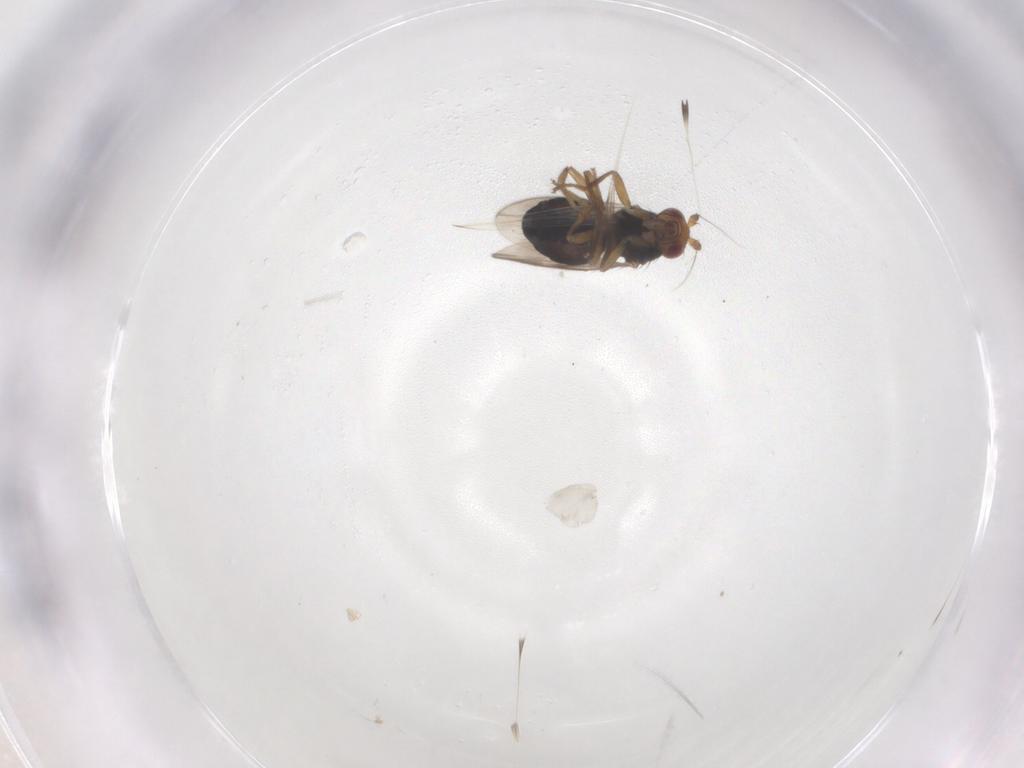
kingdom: Animalia
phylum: Arthropoda
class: Insecta
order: Diptera
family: Sphaeroceridae
